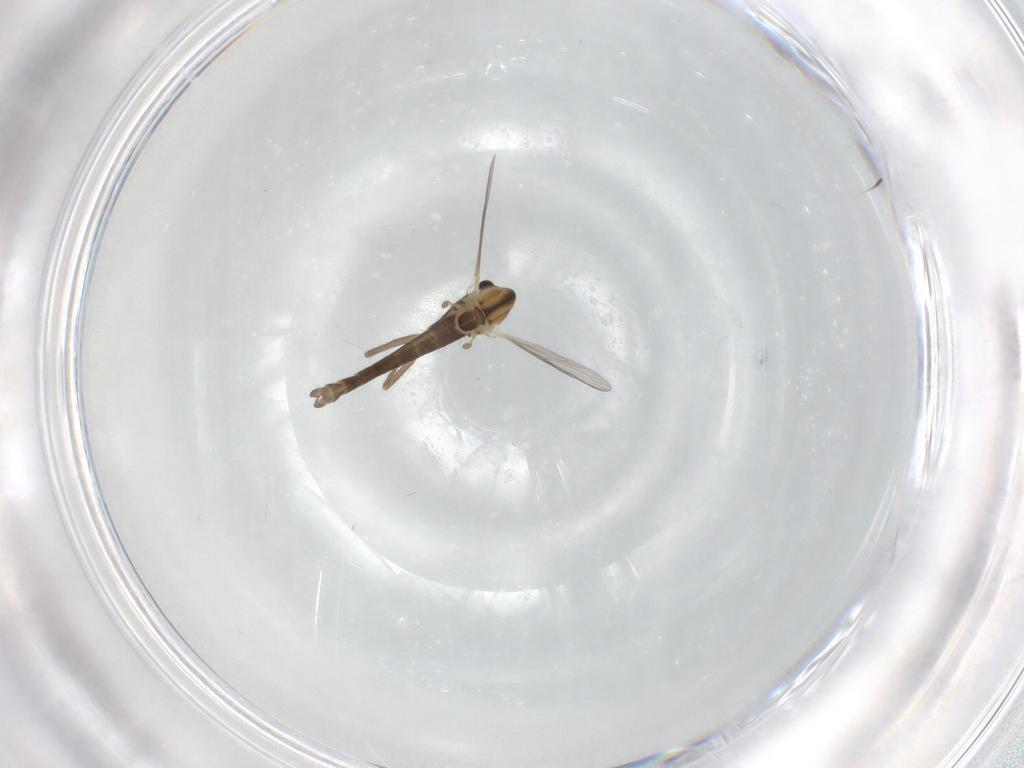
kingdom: Animalia
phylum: Arthropoda
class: Insecta
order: Diptera
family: Chironomidae
